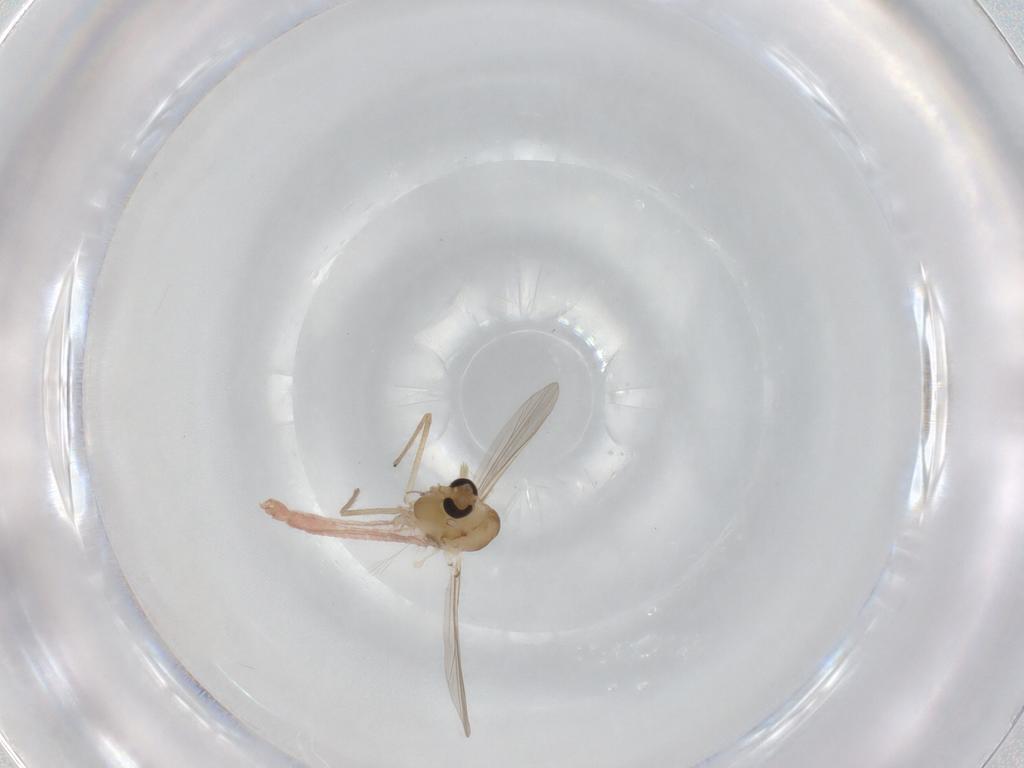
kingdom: Animalia
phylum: Arthropoda
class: Insecta
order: Diptera
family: Chironomidae
